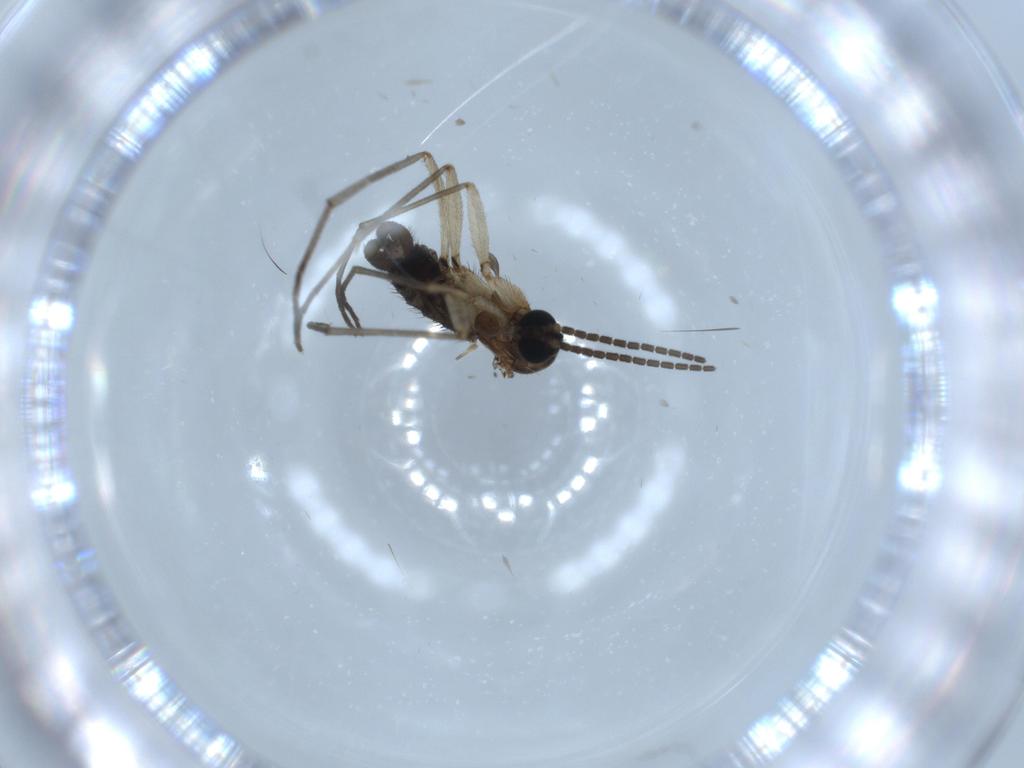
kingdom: Animalia
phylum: Arthropoda
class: Insecta
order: Diptera
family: Sciaridae
